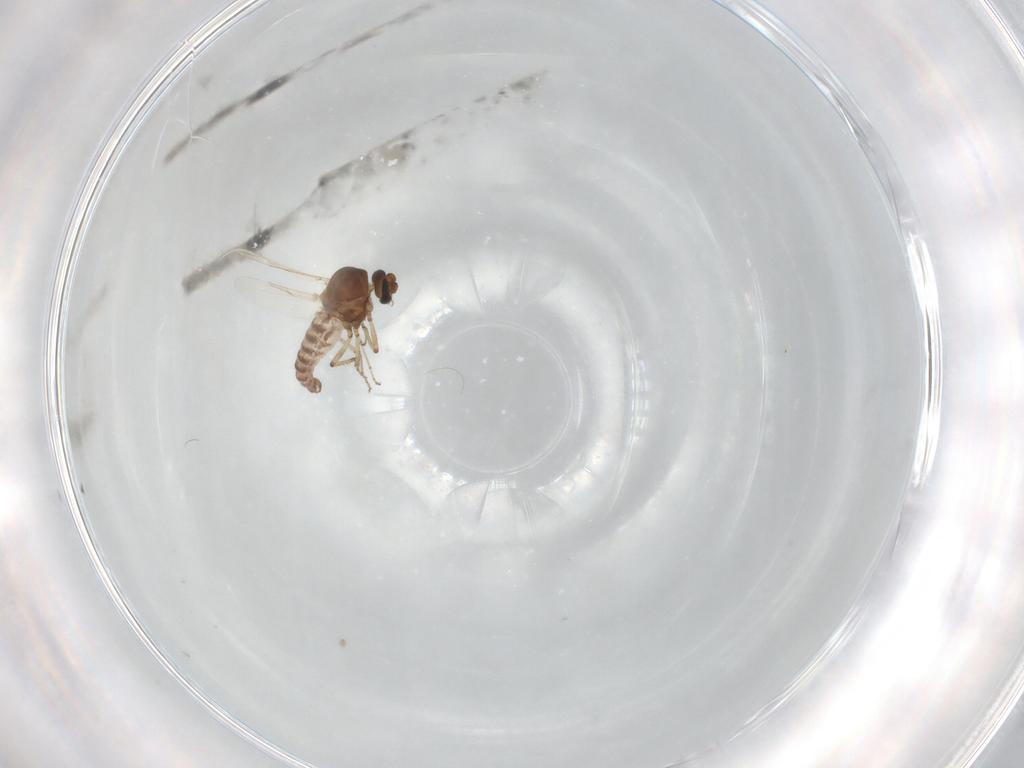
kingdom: Animalia
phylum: Arthropoda
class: Insecta
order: Diptera
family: Ceratopogonidae
